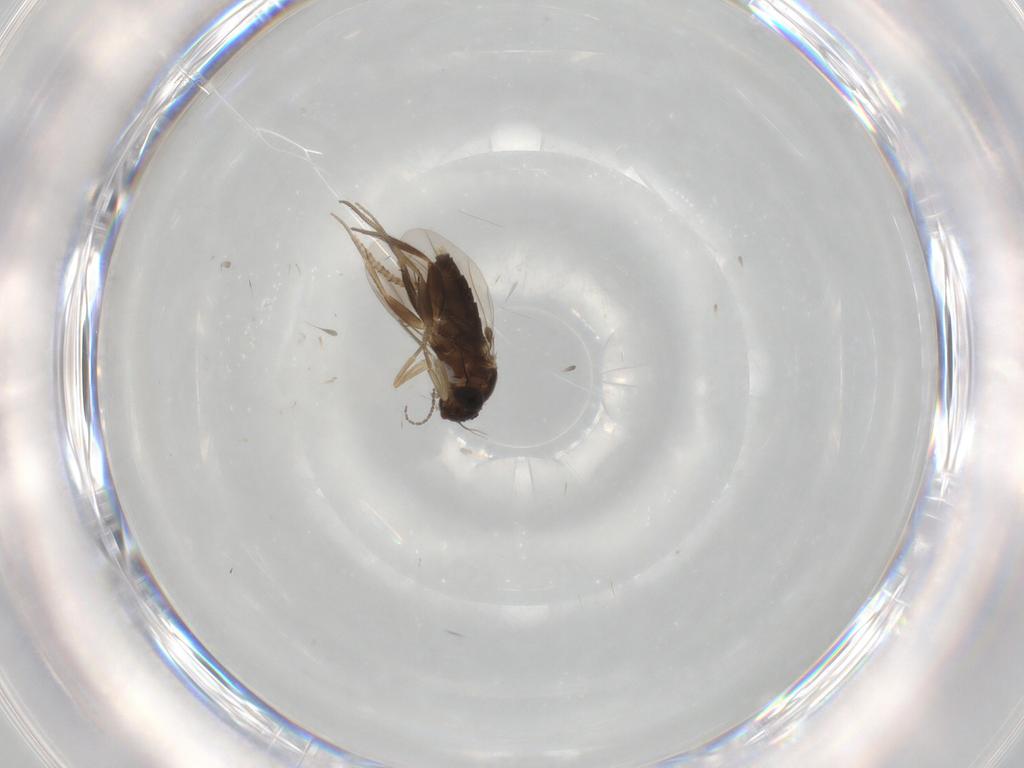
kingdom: Animalia
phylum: Arthropoda
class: Insecta
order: Diptera
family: Phoridae
